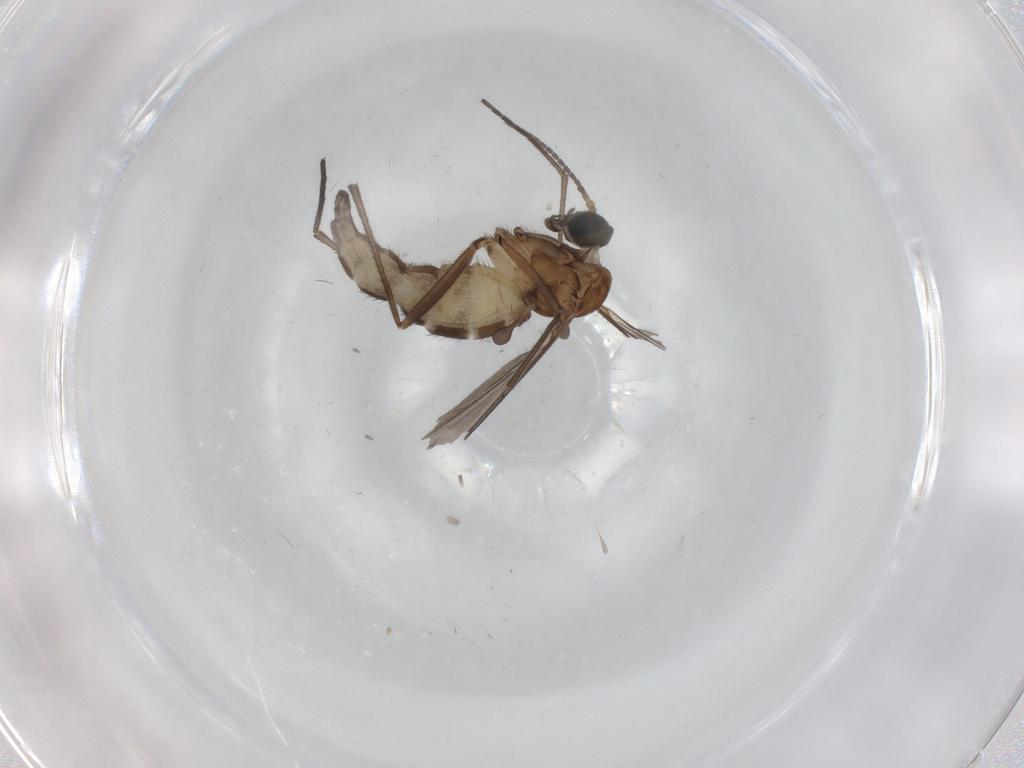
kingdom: Animalia
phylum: Arthropoda
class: Insecta
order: Diptera
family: Sciaridae
